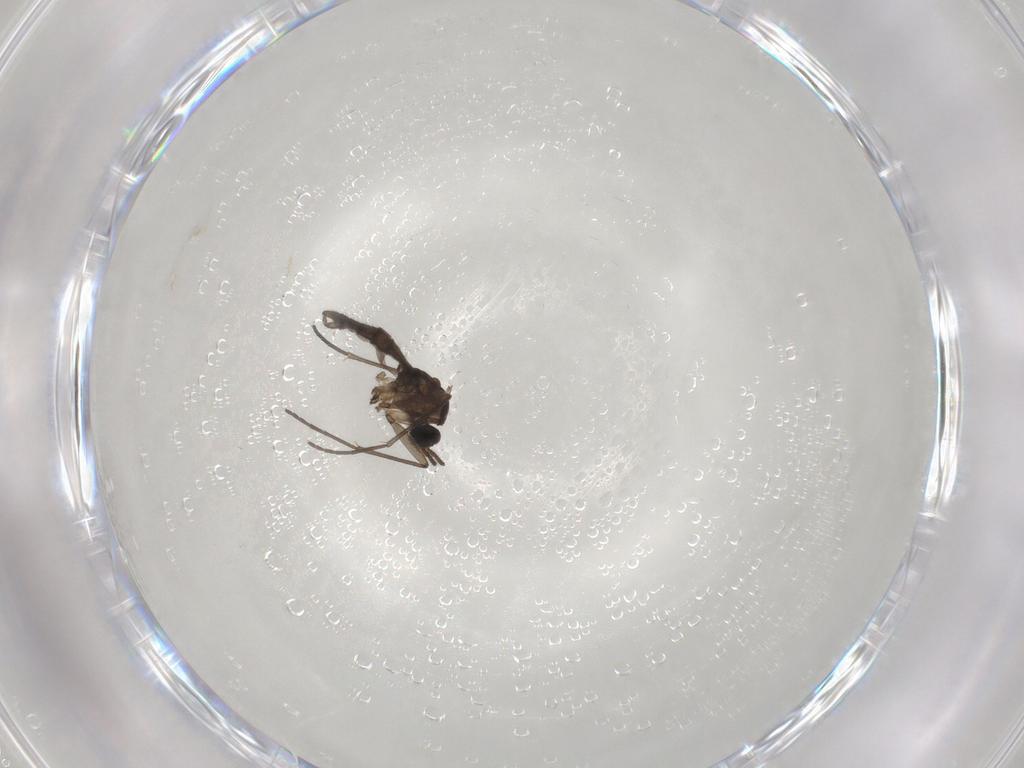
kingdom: Animalia
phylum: Arthropoda
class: Insecta
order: Diptera
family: Sciaridae
